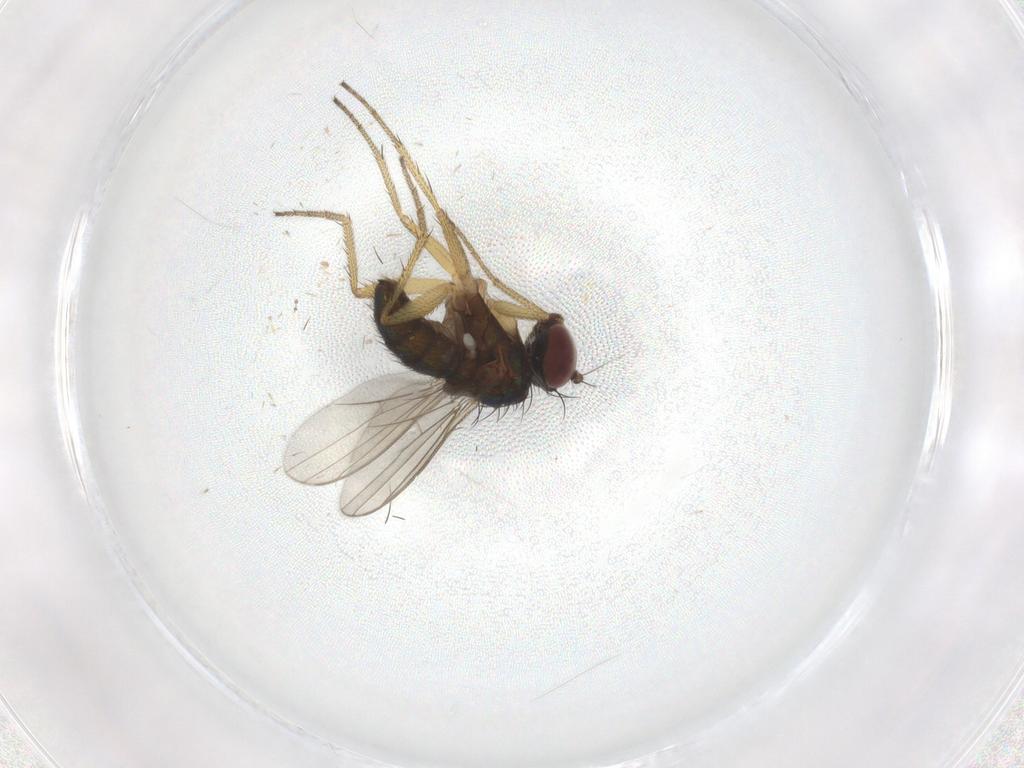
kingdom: Animalia
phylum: Arthropoda
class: Insecta
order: Diptera
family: Dolichopodidae
